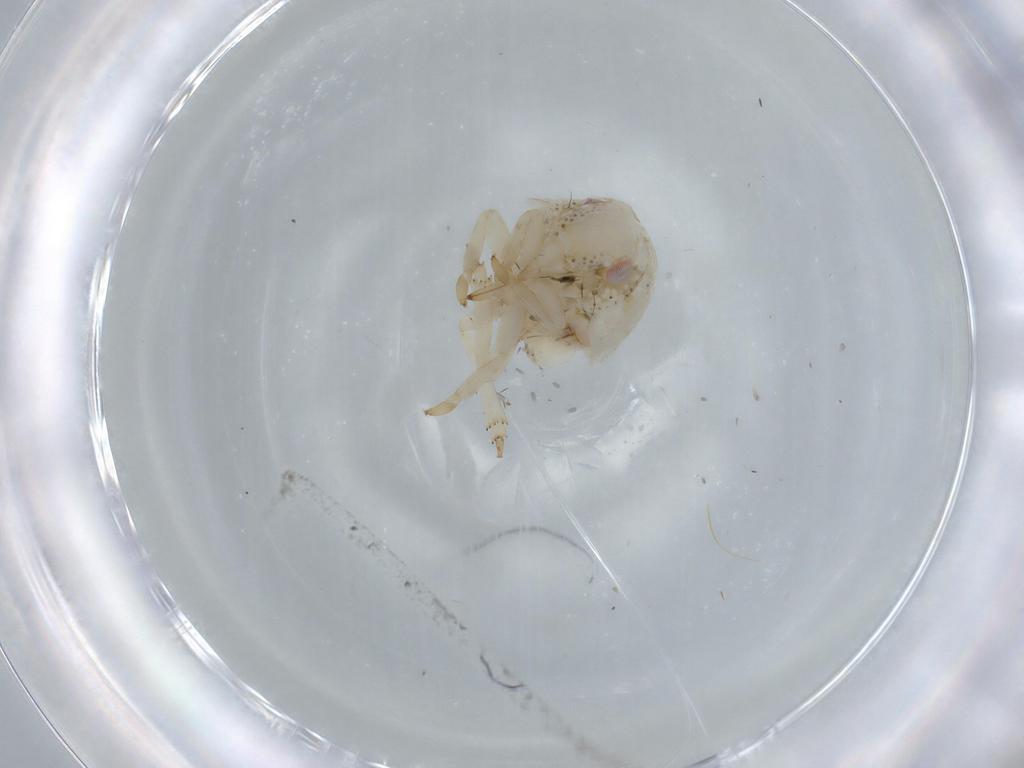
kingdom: Animalia
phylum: Arthropoda
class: Insecta
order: Hemiptera
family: Acanaloniidae
